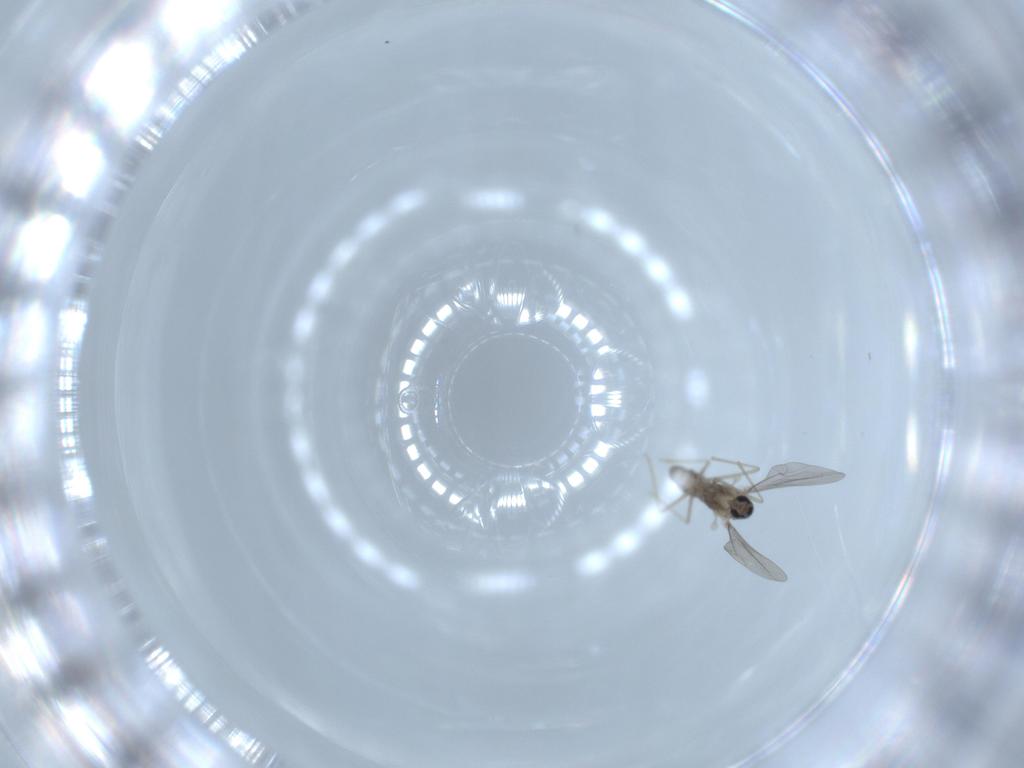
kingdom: Animalia
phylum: Arthropoda
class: Insecta
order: Diptera
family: Cecidomyiidae
